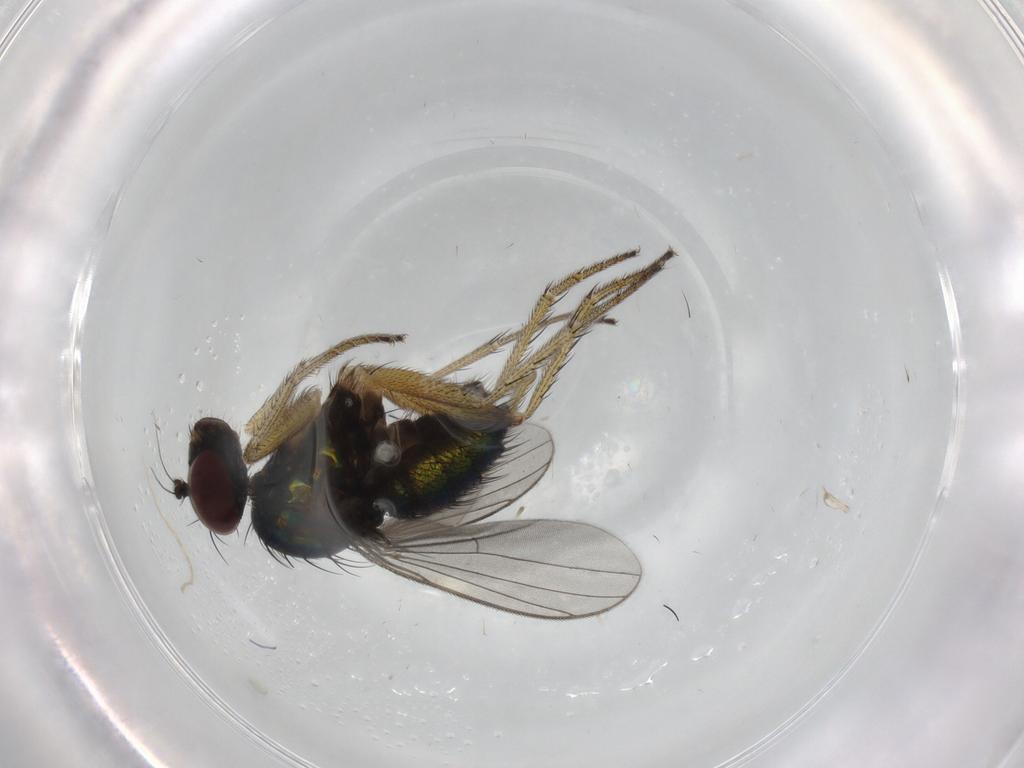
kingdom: Animalia
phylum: Arthropoda
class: Insecta
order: Diptera
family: Dolichopodidae
